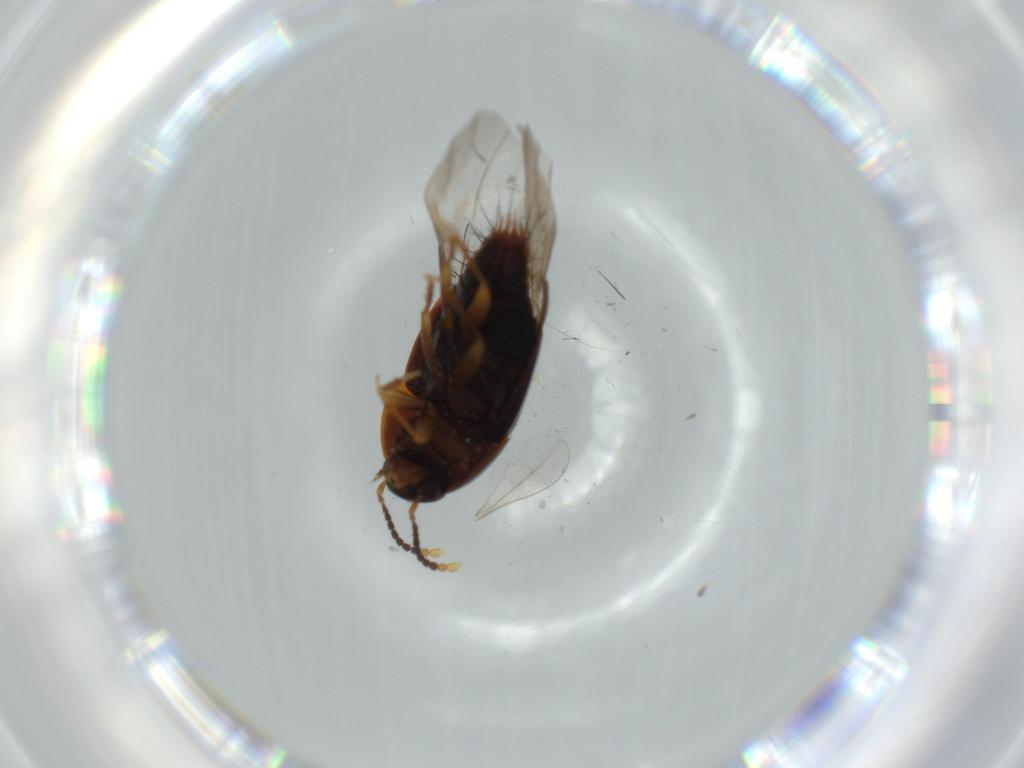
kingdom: Animalia
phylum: Arthropoda
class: Insecta
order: Coleoptera
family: Staphylinidae
